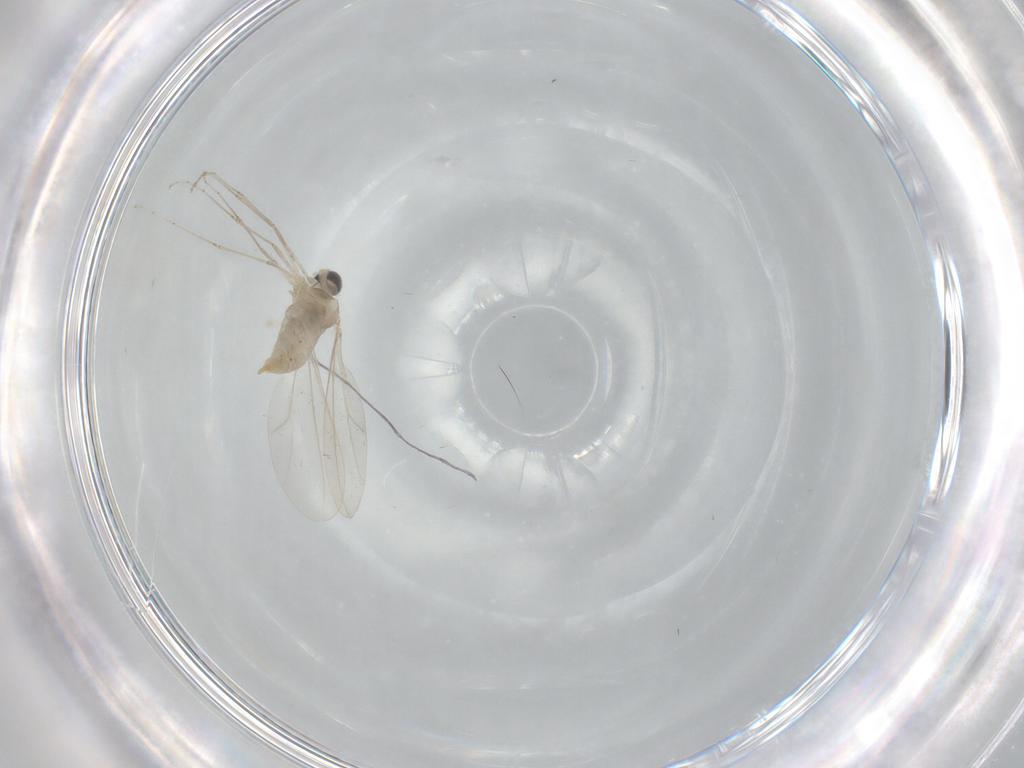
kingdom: Animalia
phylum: Arthropoda
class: Insecta
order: Diptera
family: Cecidomyiidae
